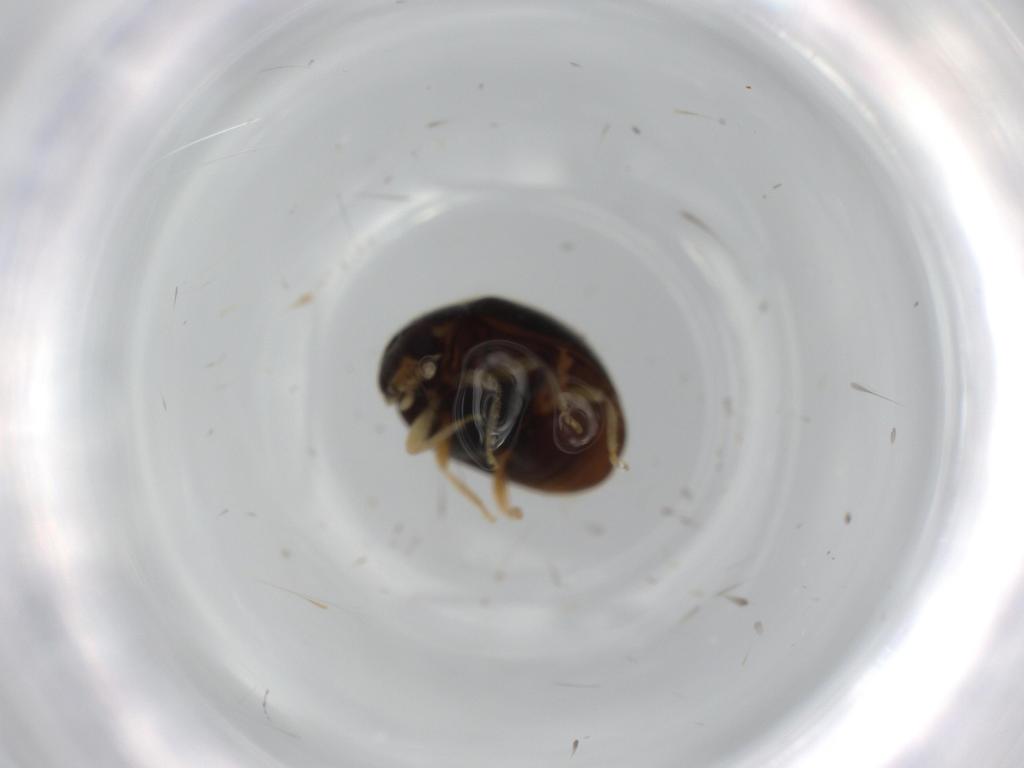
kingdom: Animalia
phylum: Arthropoda
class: Insecta
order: Coleoptera
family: Coccinellidae
